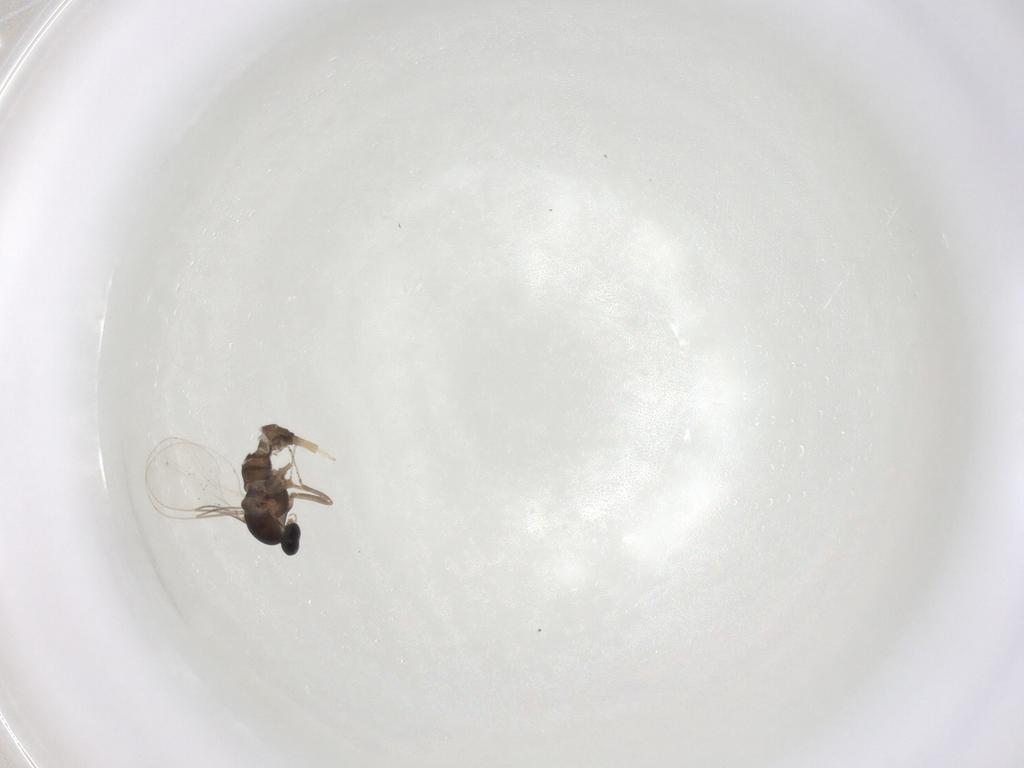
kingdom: Animalia
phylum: Arthropoda
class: Insecta
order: Diptera
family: Cecidomyiidae
